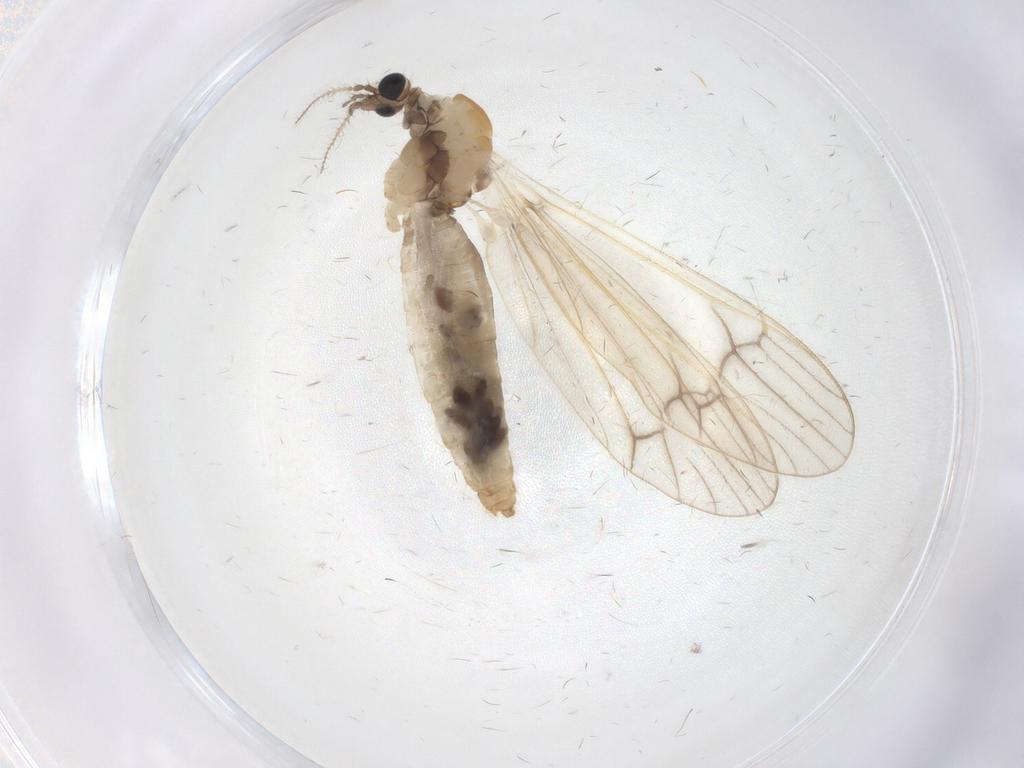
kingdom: Animalia
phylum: Arthropoda
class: Insecta
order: Diptera
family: Limoniidae
